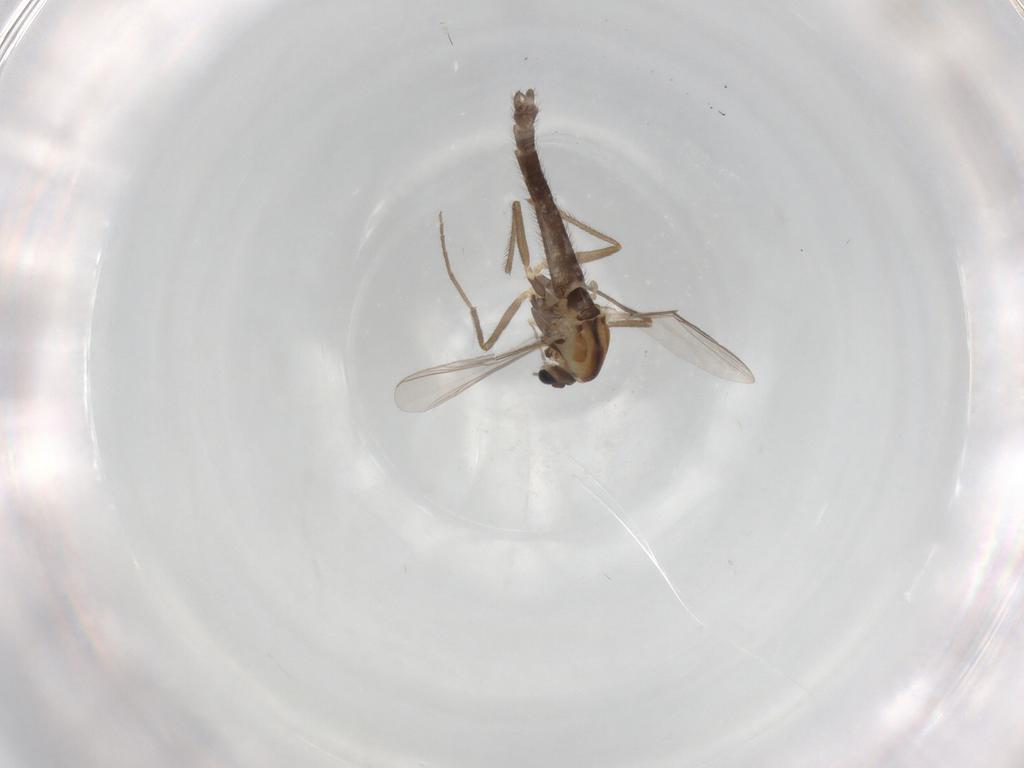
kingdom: Animalia
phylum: Arthropoda
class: Insecta
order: Diptera
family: Chironomidae
